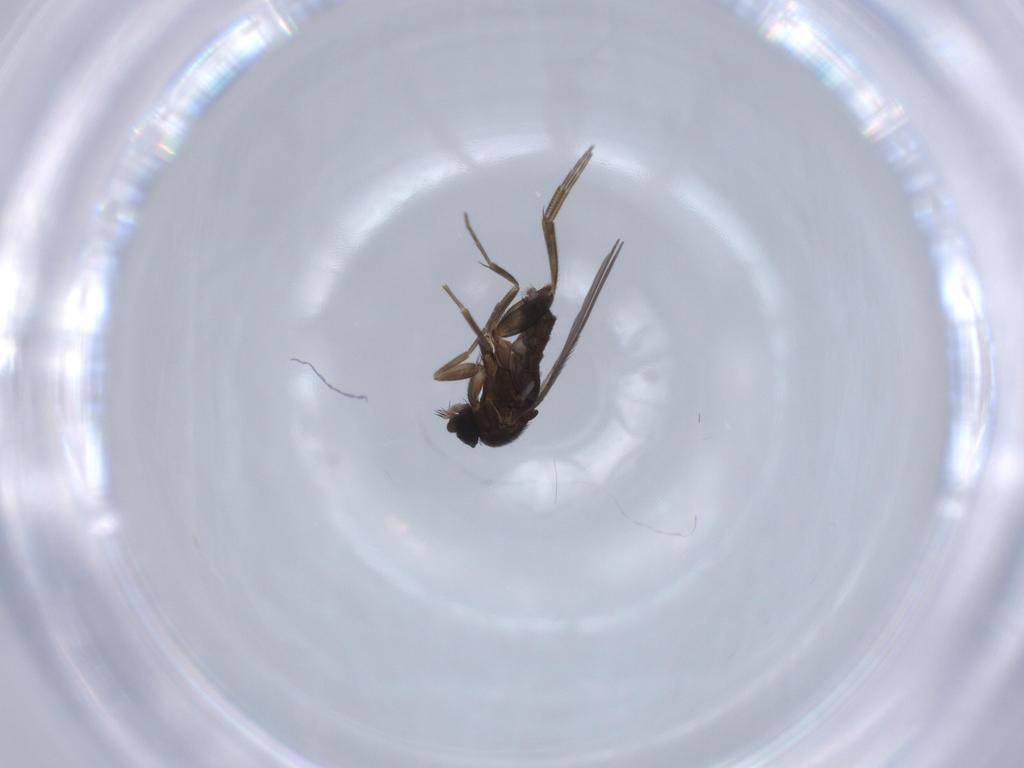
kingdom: Animalia
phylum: Arthropoda
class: Insecta
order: Diptera
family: Phoridae
